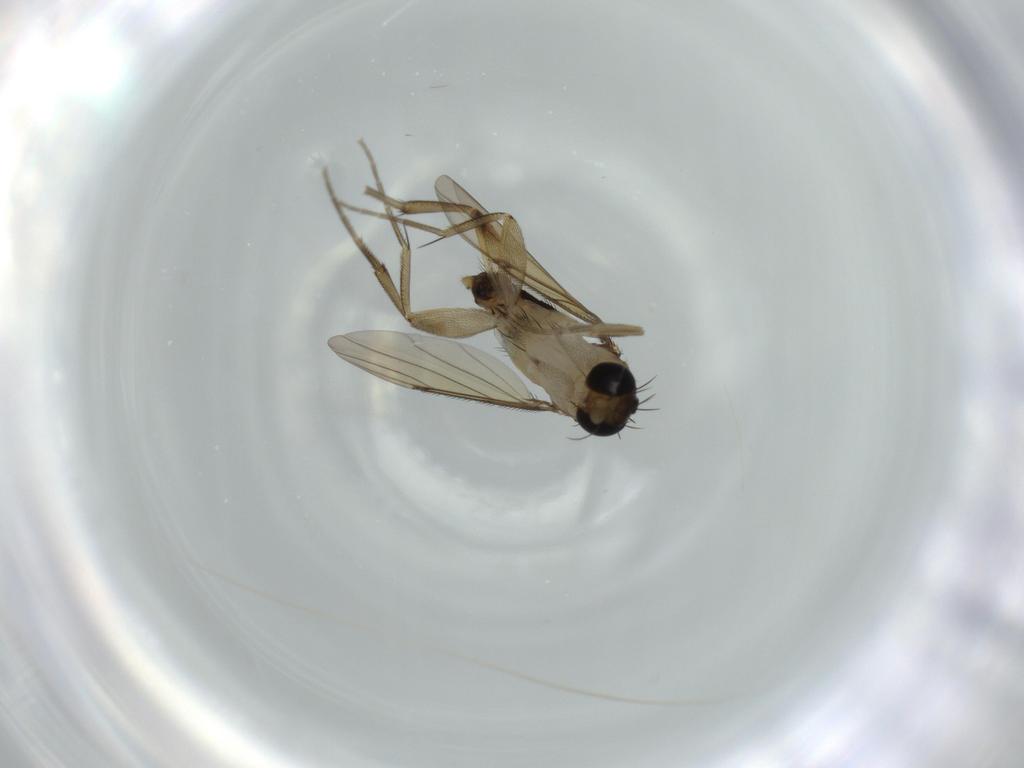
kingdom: Animalia
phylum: Arthropoda
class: Insecta
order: Diptera
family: Phoridae
